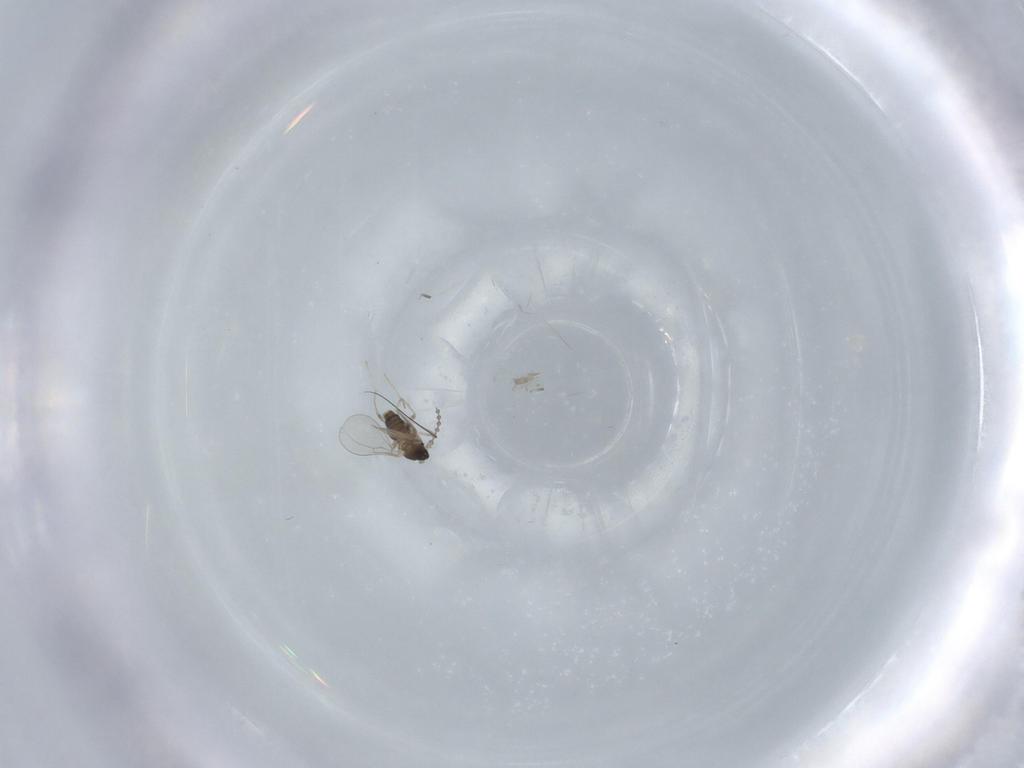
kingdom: Animalia
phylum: Arthropoda
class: Insecta
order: Diptera
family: Cecidomyiidae
